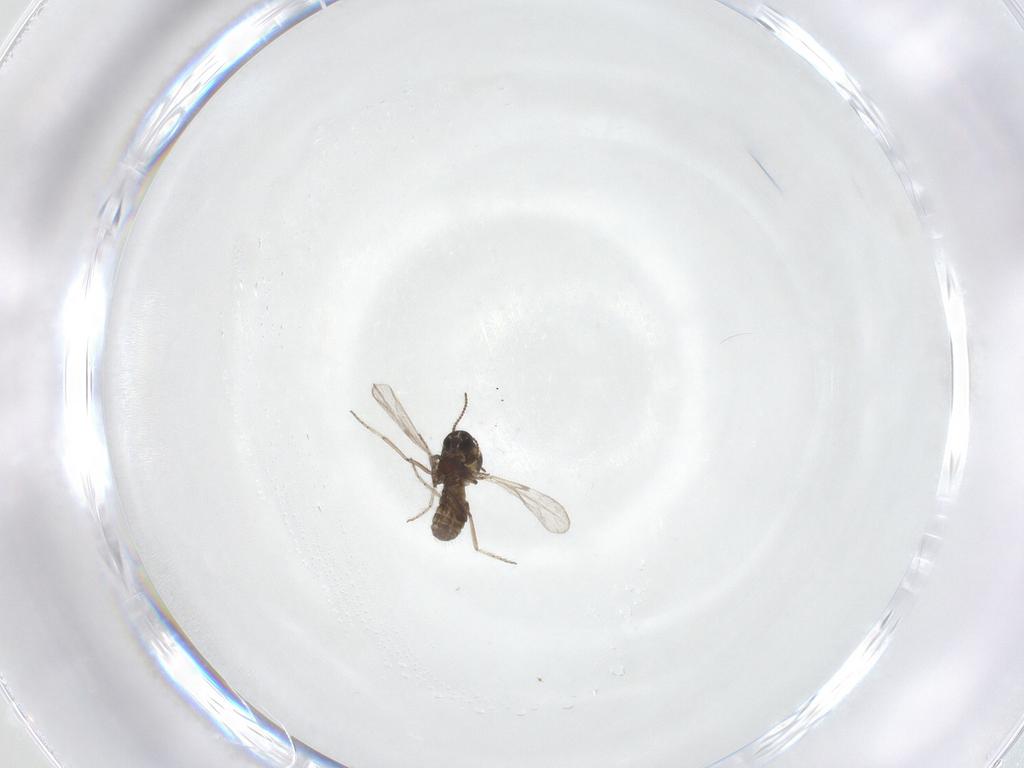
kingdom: Animalia
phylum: Arthropoda
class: Insecta
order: Diptera
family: Ceratopogonidae
